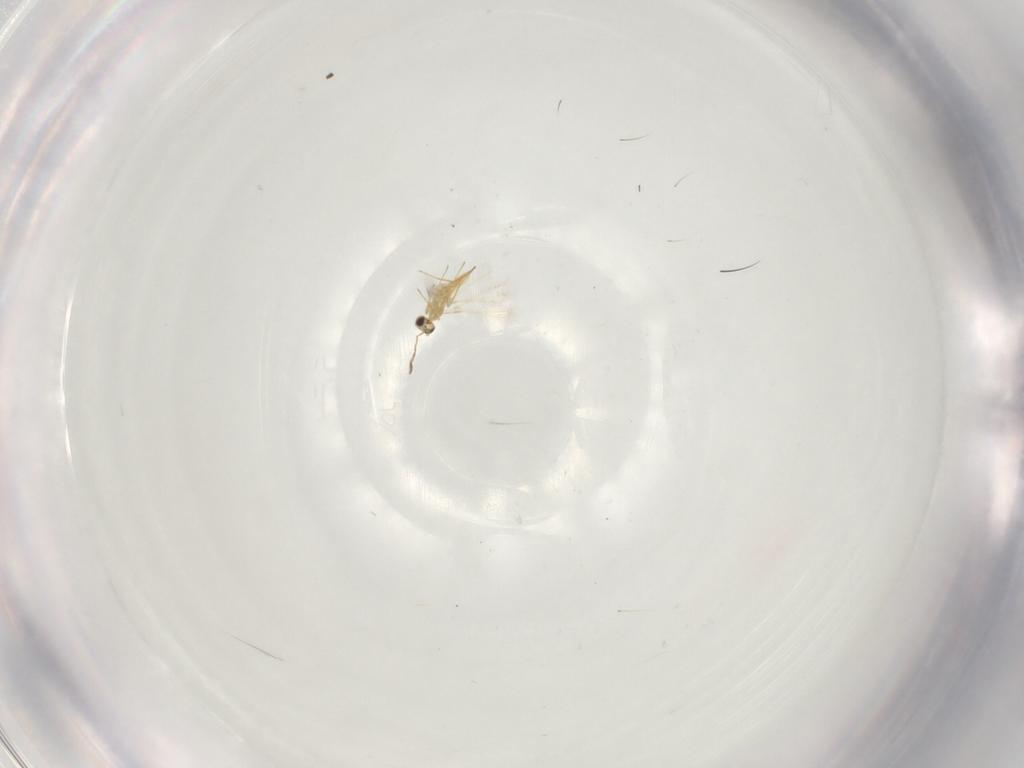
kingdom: Animalia
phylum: Arthropoda
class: Insecta
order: Hymenoptera
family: Mymaridae
